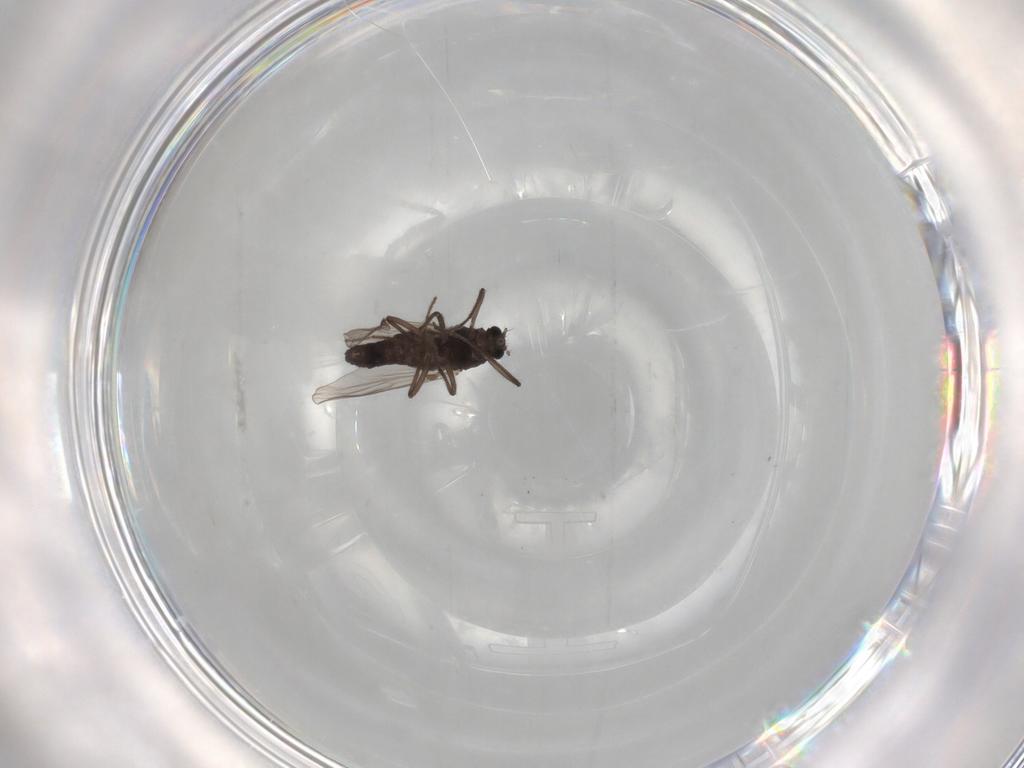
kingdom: Animalia
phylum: Arthropoda
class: Insecta
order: Diptera
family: Chironomidae
